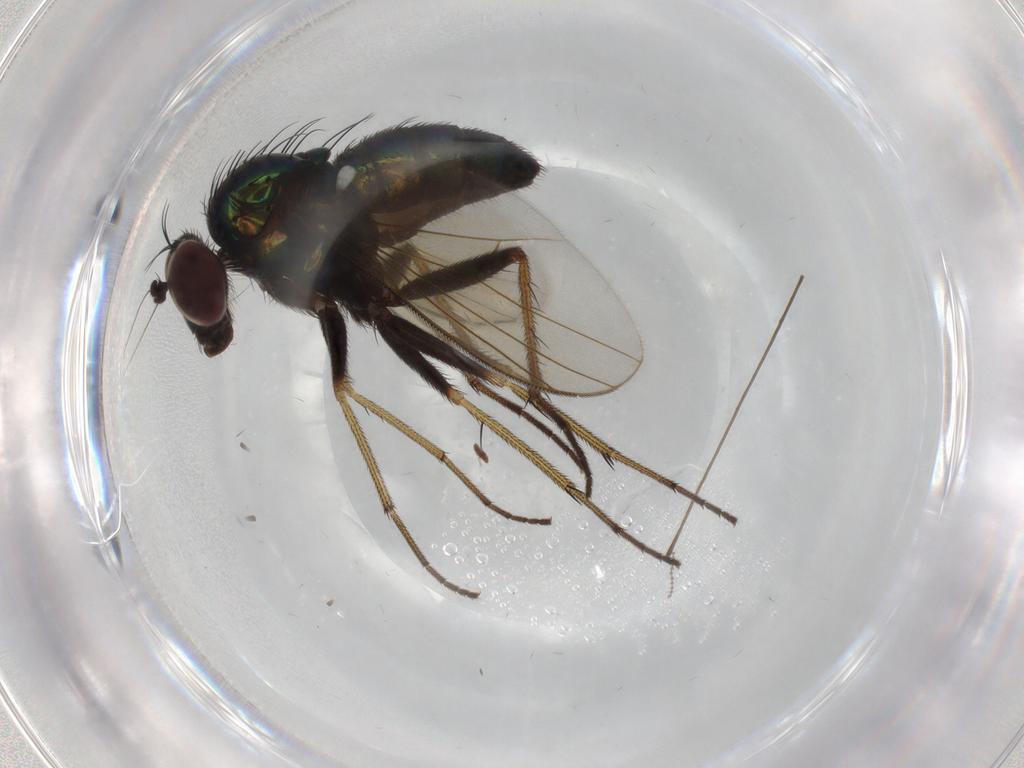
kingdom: Animalia
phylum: Arthropoda
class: Insecta
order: Diptera
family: Dolichopodidae
